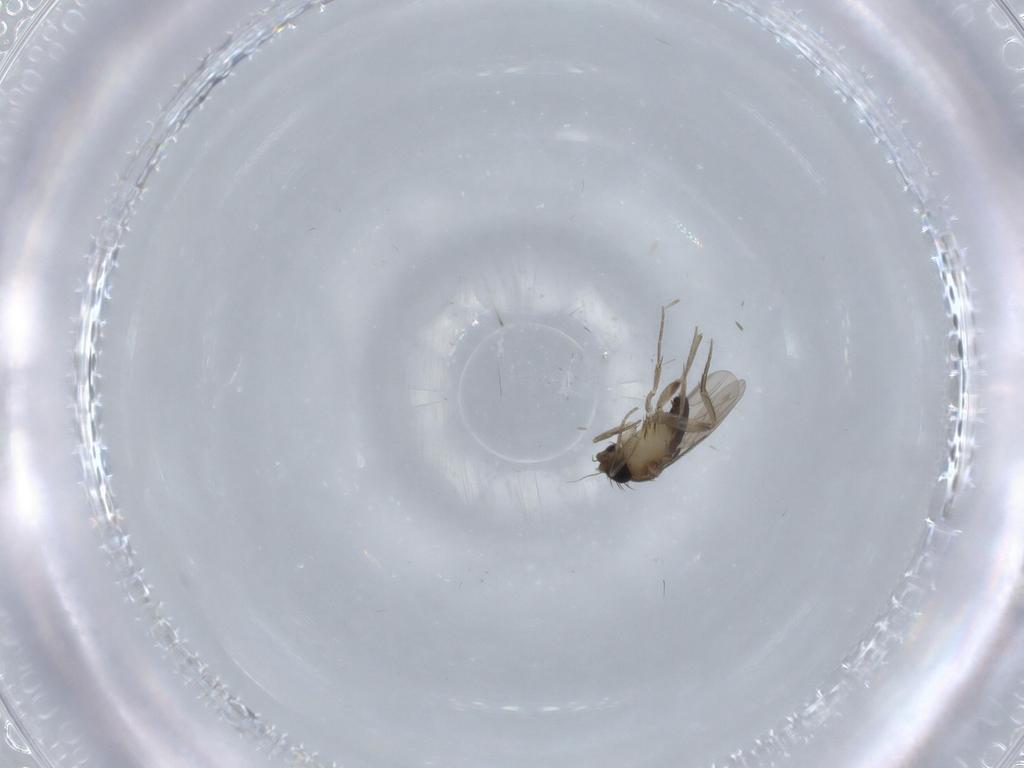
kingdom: Animalia
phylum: Arthropoda
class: Insecta
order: Diptera
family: Phoridae
